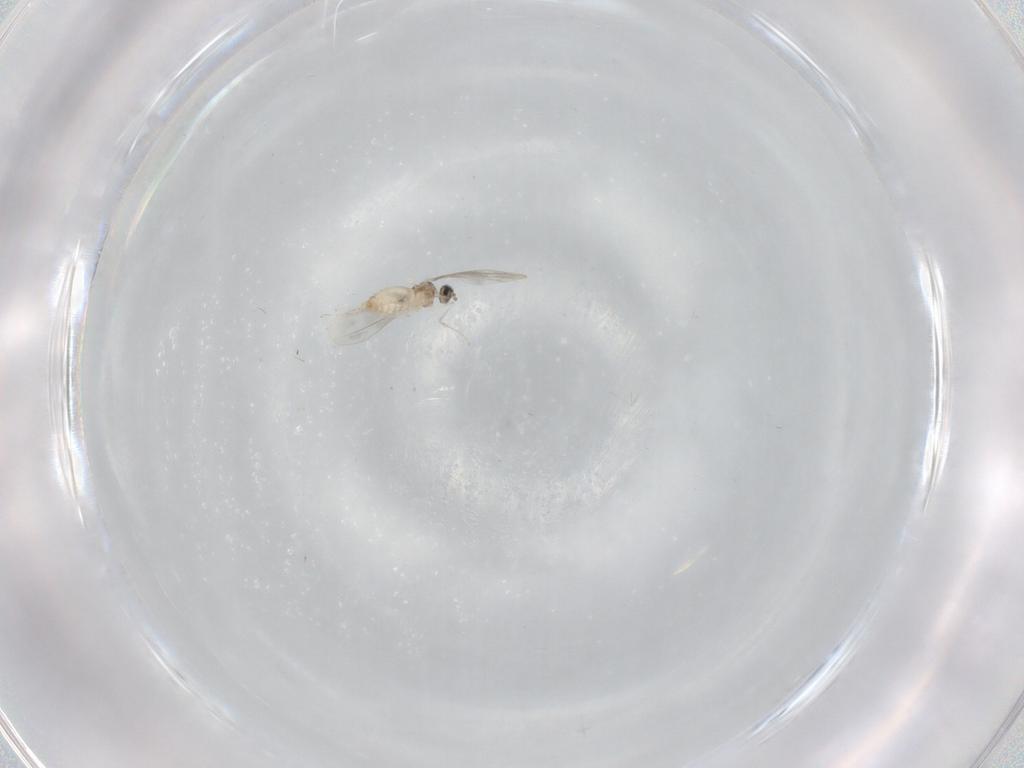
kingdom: Animalia
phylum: Arthropoda
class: Insecta
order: Diptera
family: Cecidomyiidae
